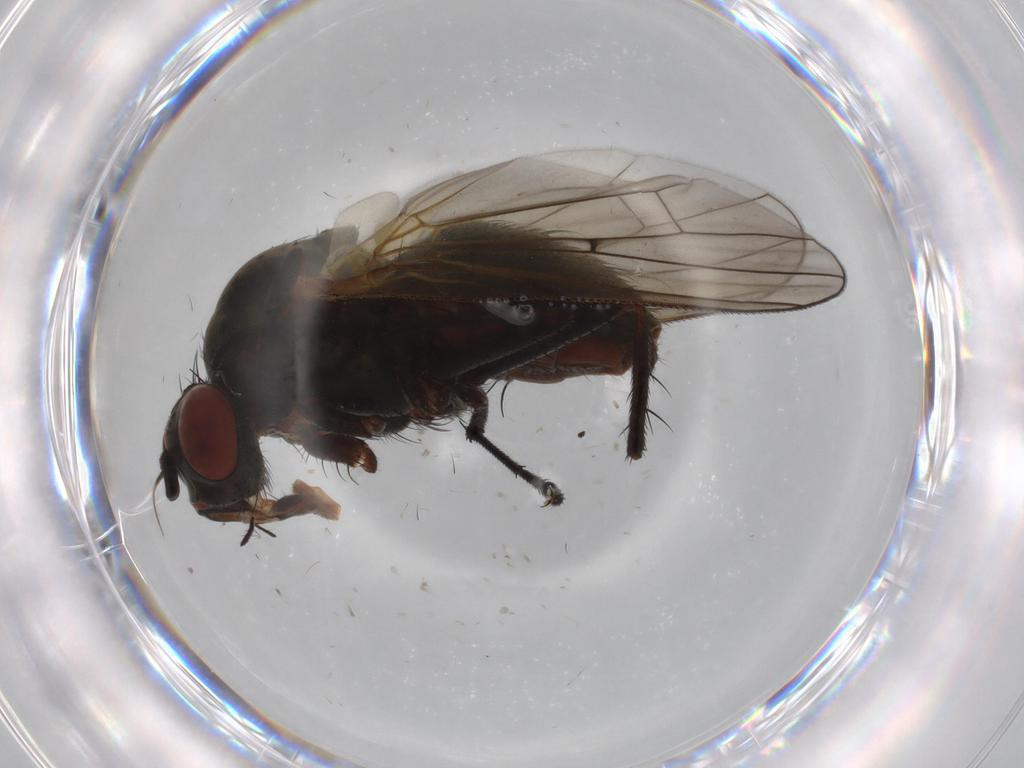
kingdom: Animalia
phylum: Arthropoda
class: Insecta
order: Diptera
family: Anthomyiidae
